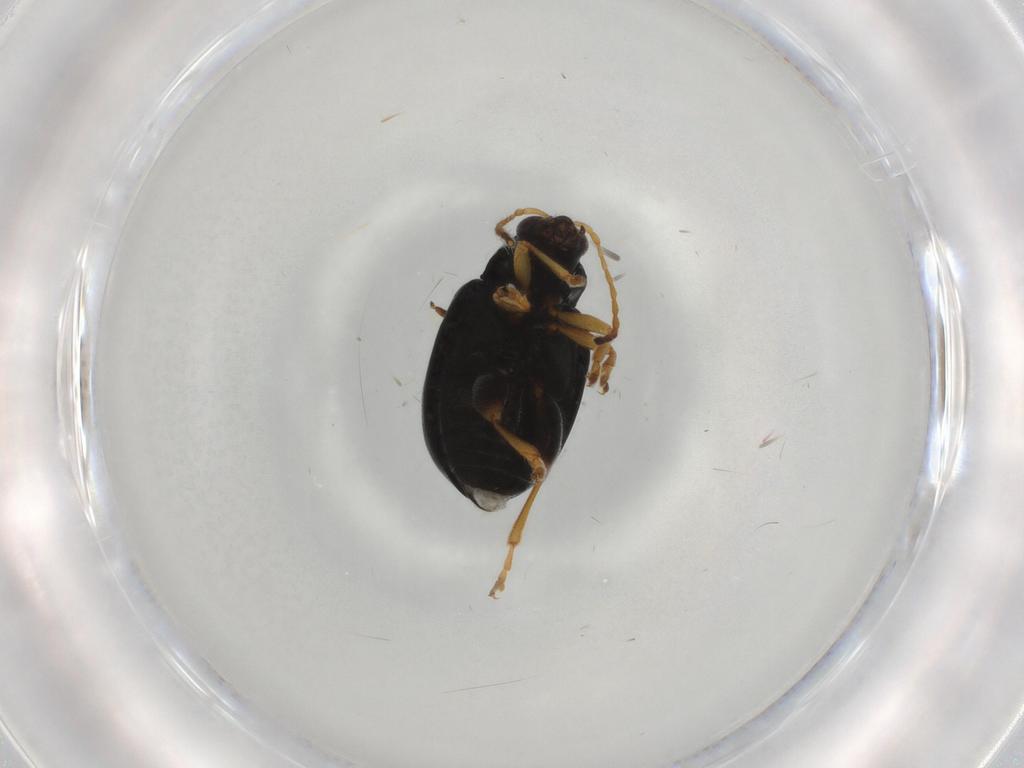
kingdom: Animalia
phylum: Arthropoda
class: Insecta
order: Coleoptera
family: Chrysomelidae
